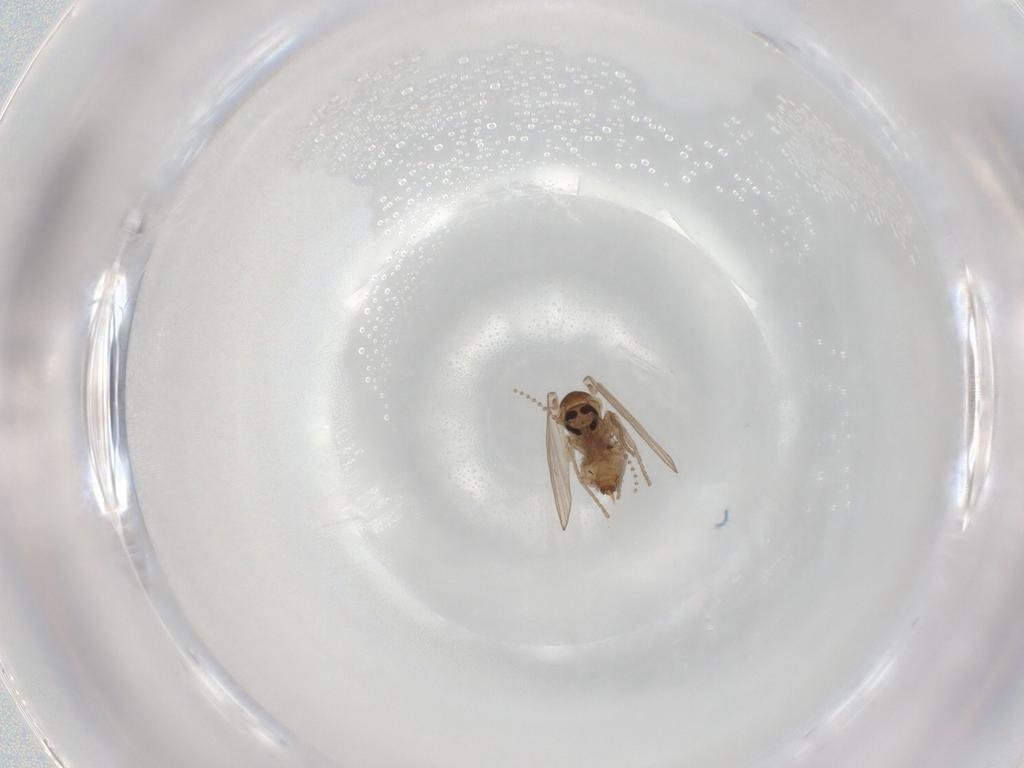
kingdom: Animalia
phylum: Arthropoda
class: Insecta
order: Diptera
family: Psychodidae
